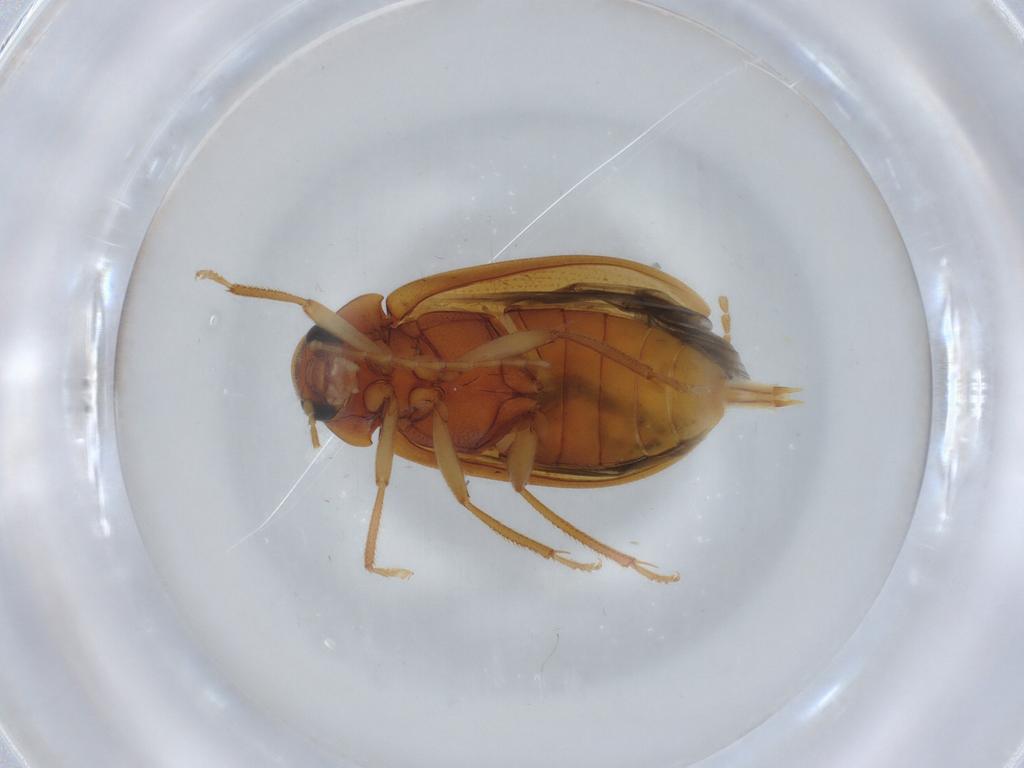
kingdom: Animalia
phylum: Arthropoda
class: Insecta
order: Coleoptera
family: Ptilodactylidae
